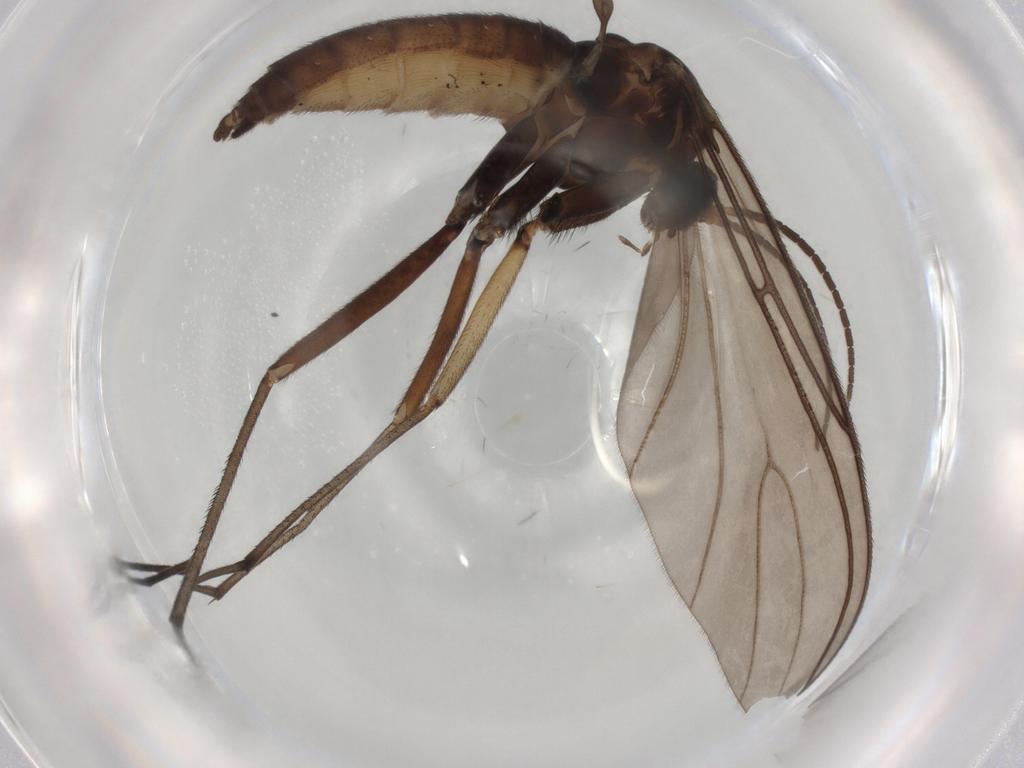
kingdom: Animalia
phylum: Arthropoda
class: Insecta
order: Diptera
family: Sciaridae
